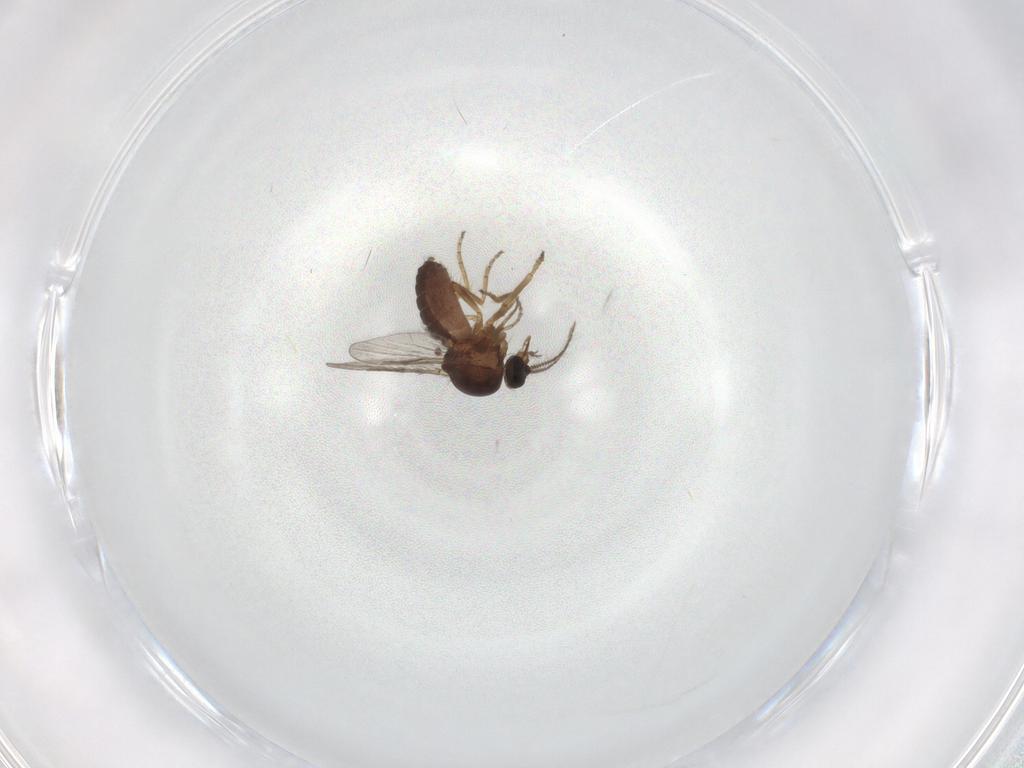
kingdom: Animalia
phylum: Arthropoda
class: Insecta
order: Diptera
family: Ceratopogonidae
